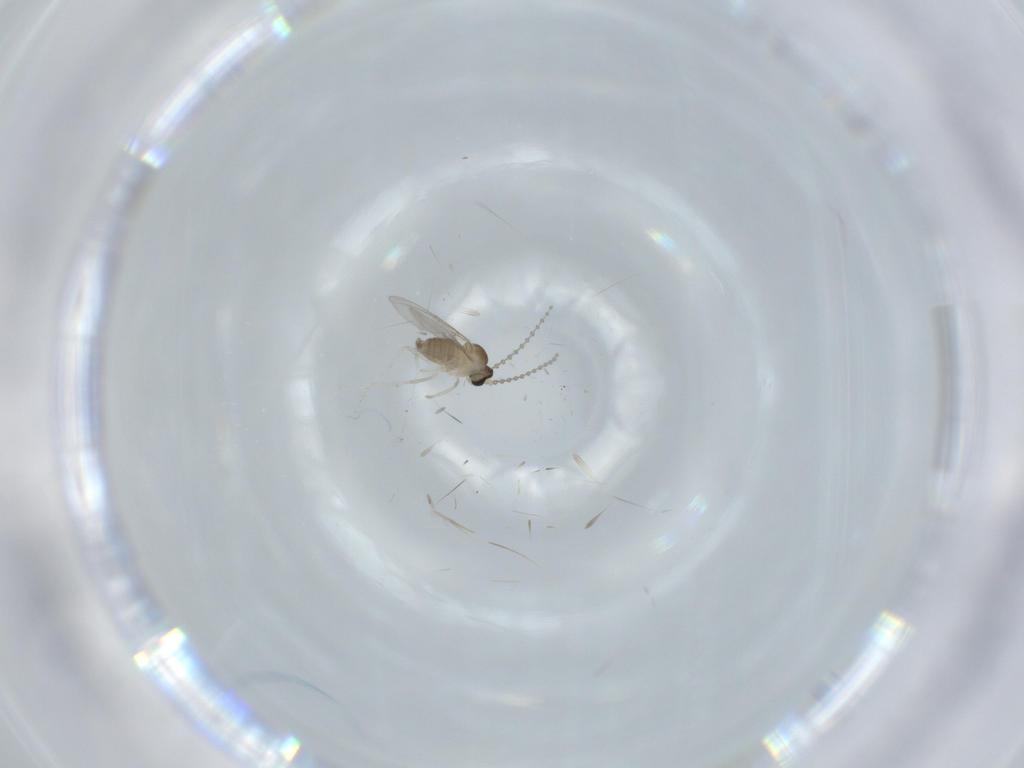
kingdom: Animalia
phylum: Arthropoda
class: Insecta
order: Diptera
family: Cecidomyiidae
